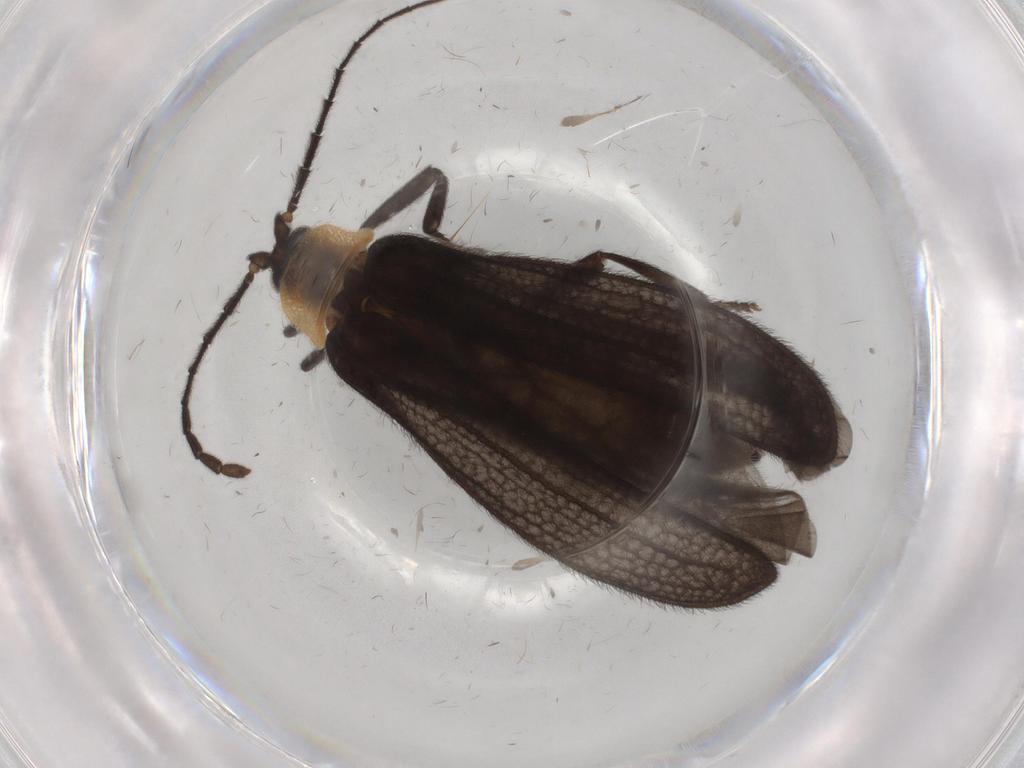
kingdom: Animalia
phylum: Arthropoda
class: Insecta
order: Coleoptera
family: Lycidae
